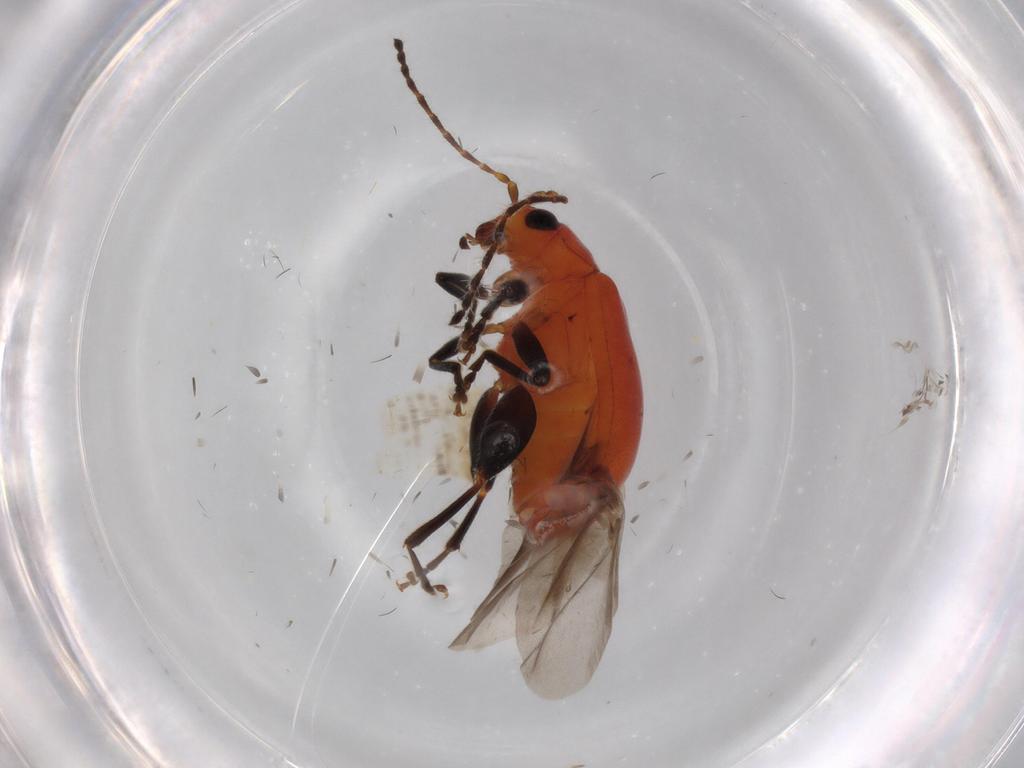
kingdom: Animalia
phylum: Arthropoda
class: Insecta
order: Coleoptera
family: Chrysomelidae
